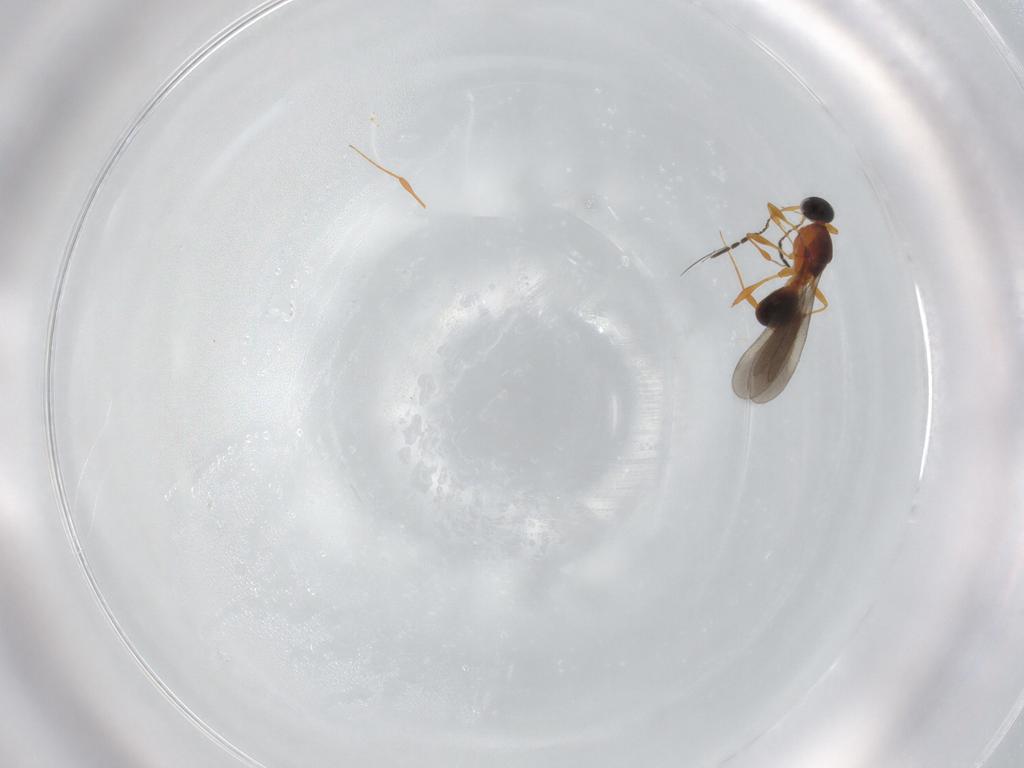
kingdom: Animalia
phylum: Arthropoda
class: Insecta
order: Hymenoptera
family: Platygastridae
